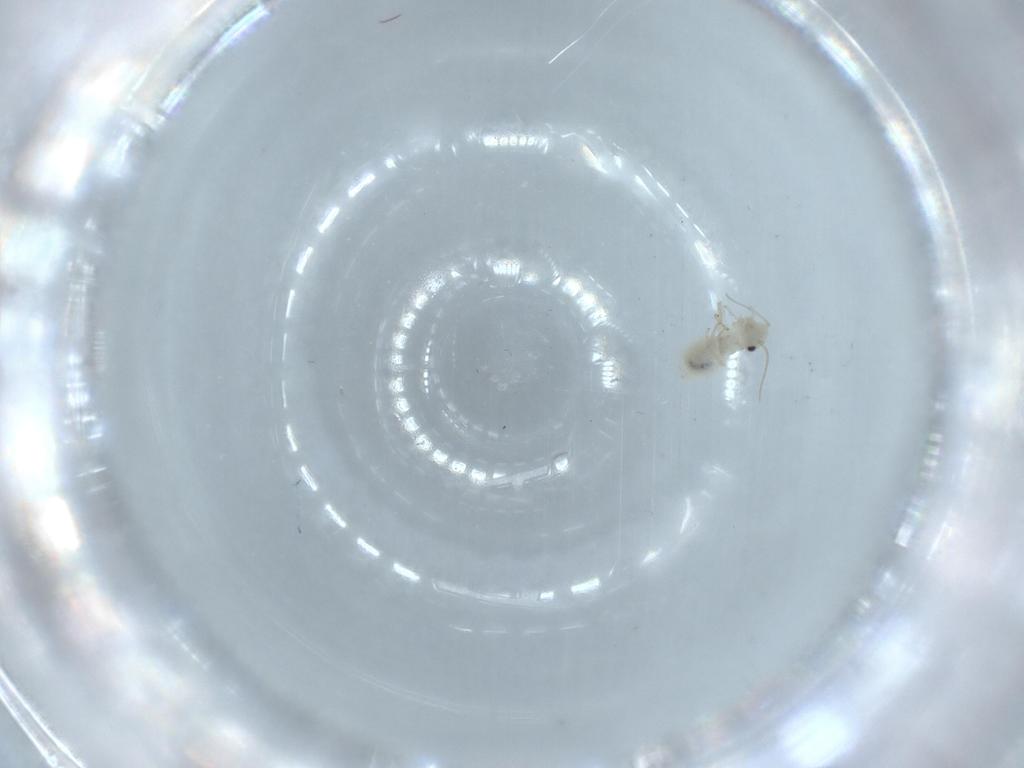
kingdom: Animalia
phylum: Arthropoda
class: Insecta
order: Psocodea
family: Caeciliusidae
